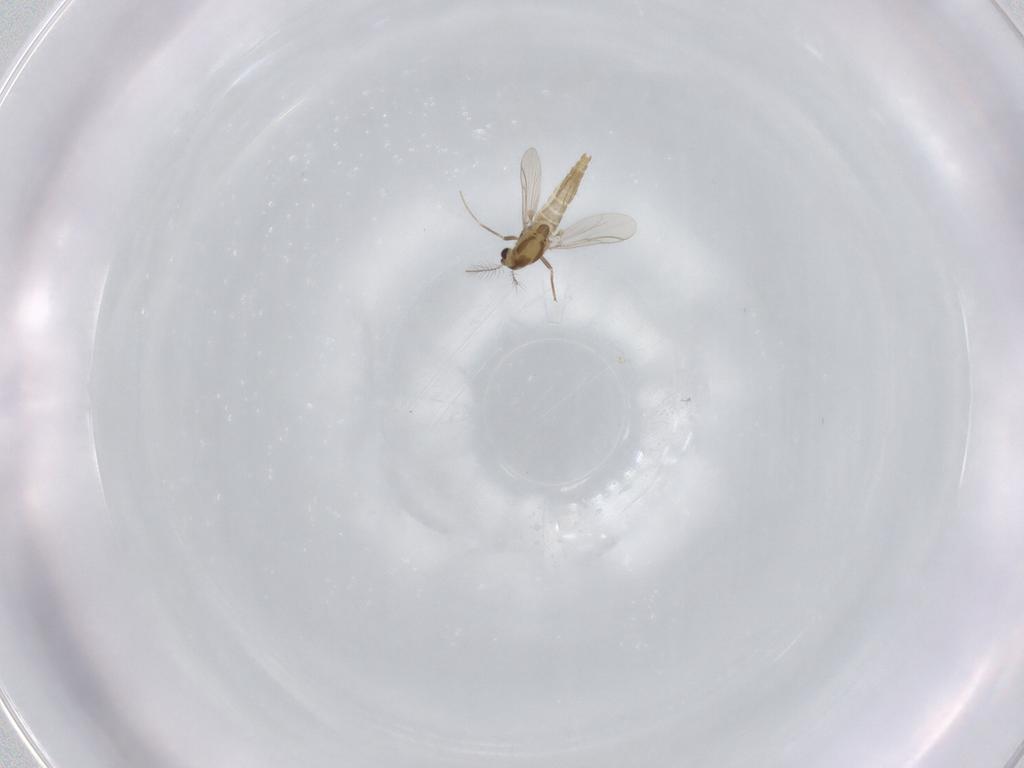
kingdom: Animalia
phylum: Arthropoda
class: Insecta
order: Diptera
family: Chironomidae
